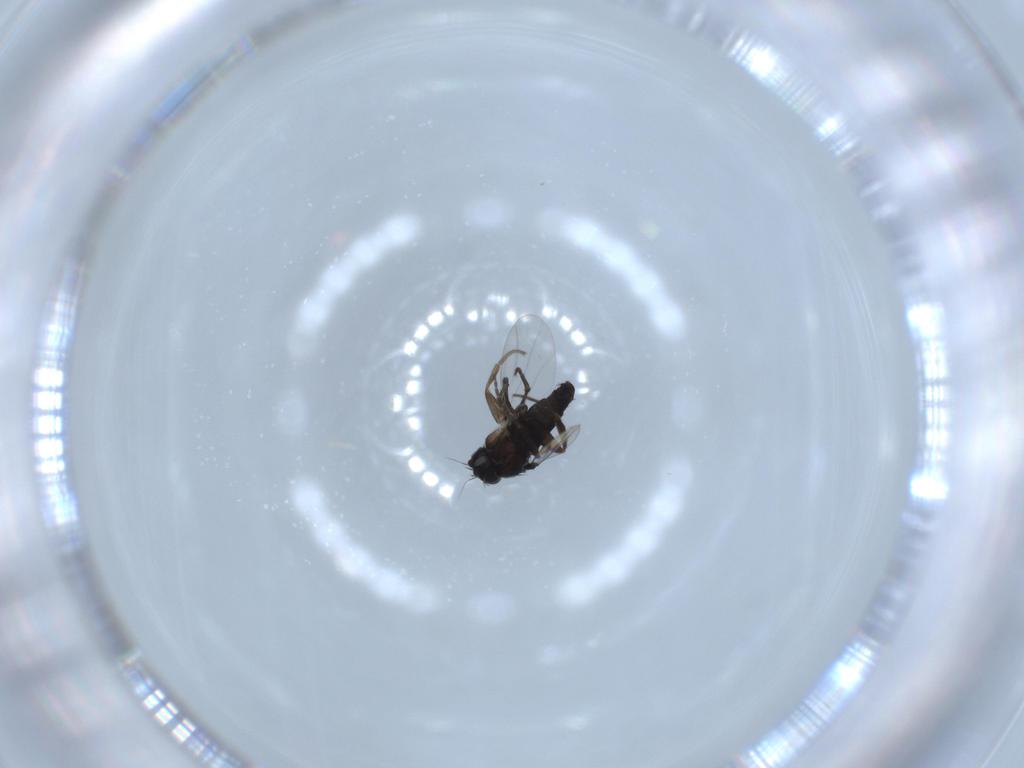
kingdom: Animalia
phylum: Arthropoda
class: Insecta
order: Diptera
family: Phoridae
